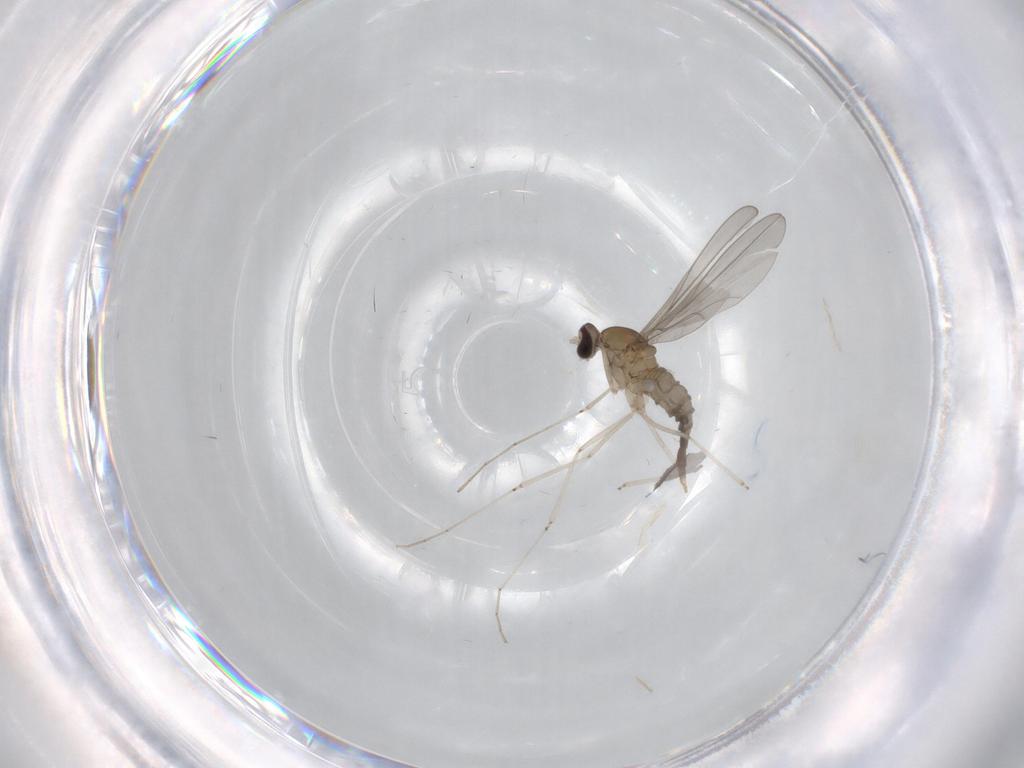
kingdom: Animalia
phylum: Arthropoda
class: Insecta
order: Diptera
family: Cecidomyiidae
